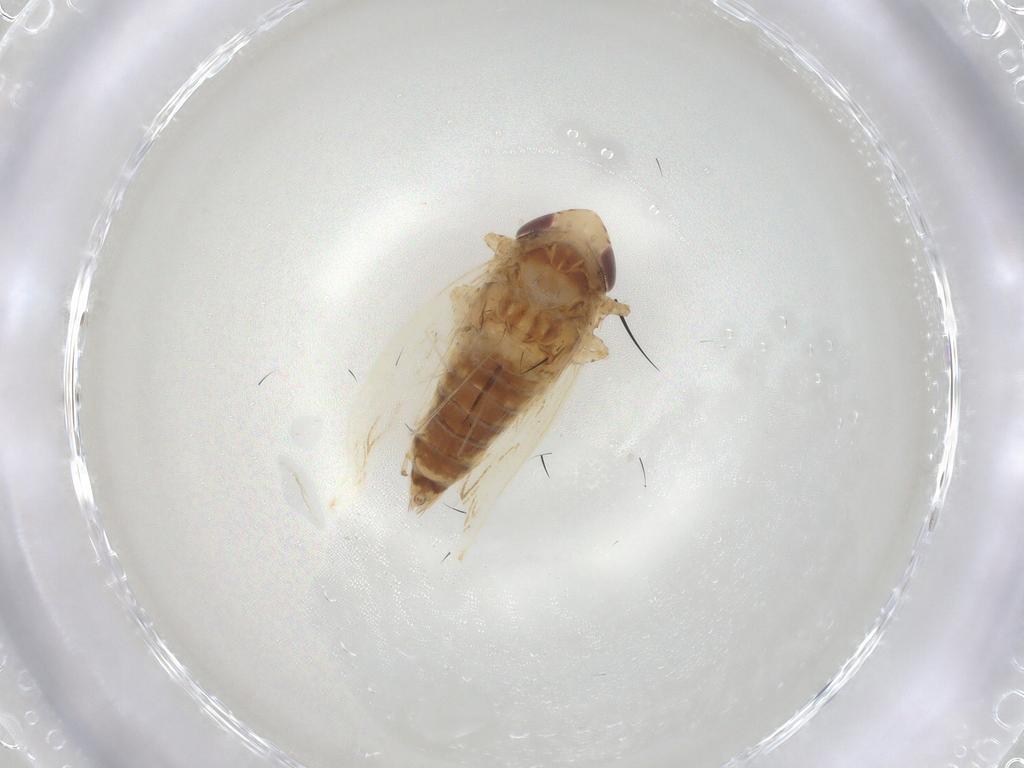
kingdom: Animalia
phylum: Arthropoda
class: Insecta
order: Hemiptera
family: Cicadellidae
